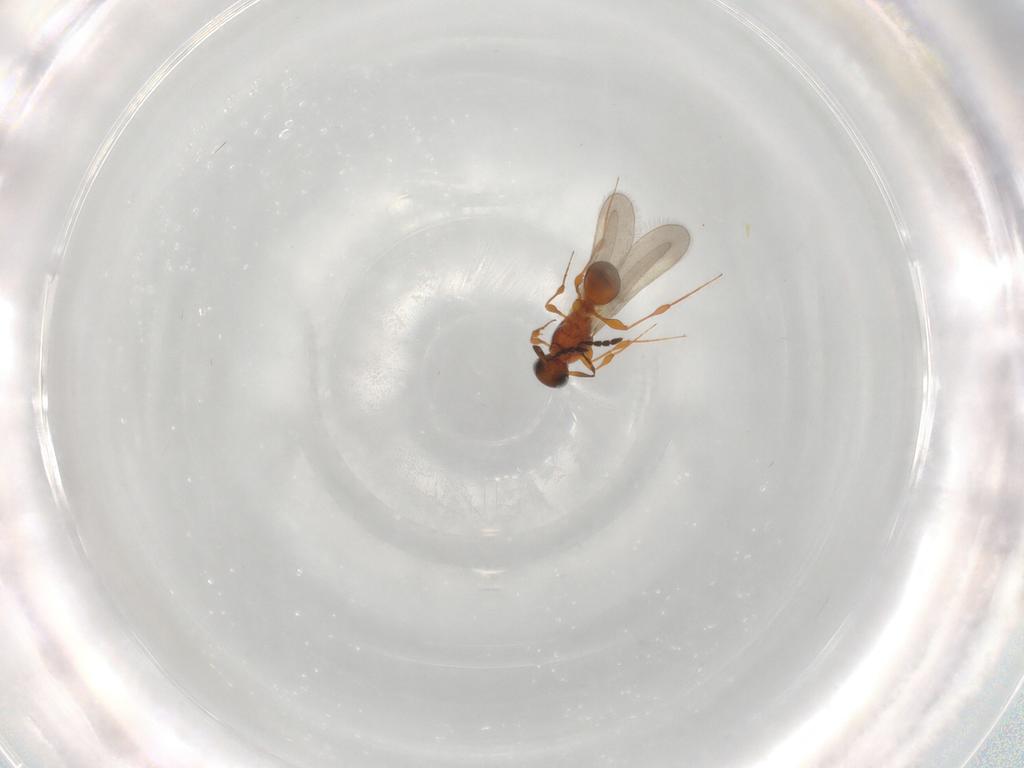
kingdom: Animalia
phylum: Arthropoda
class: Insecta
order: Hymenoptera
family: Platygastridae
